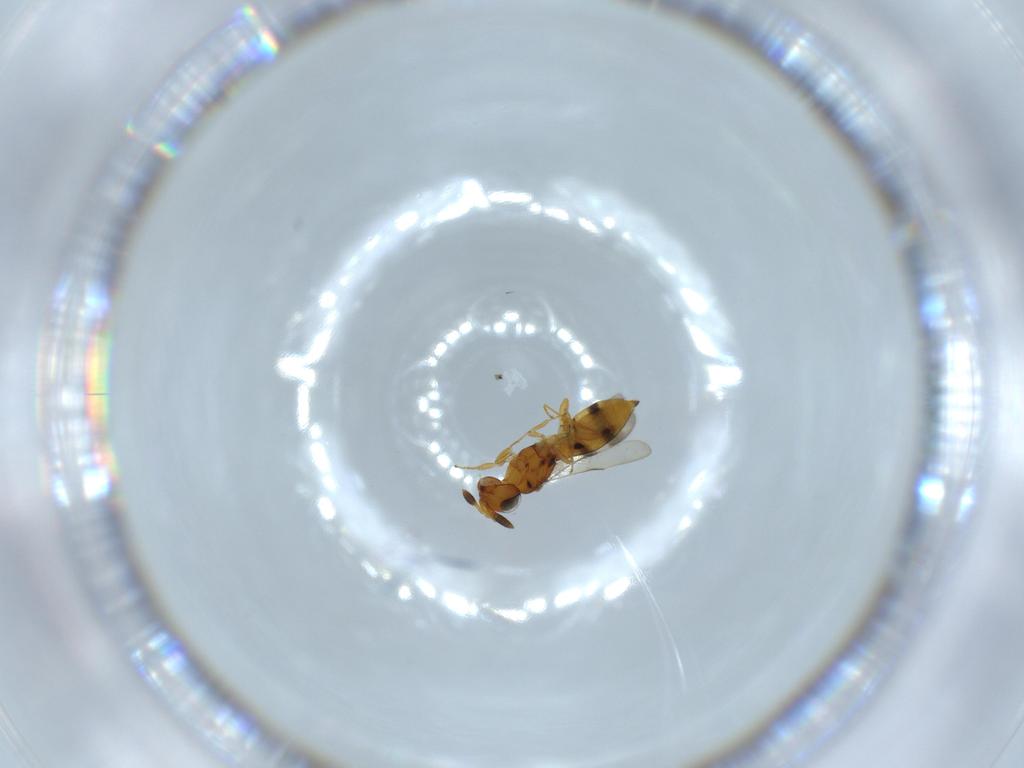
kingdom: Animalia
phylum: Arthropoda
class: Insecta
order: Hymenoptera
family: Scelionidae
